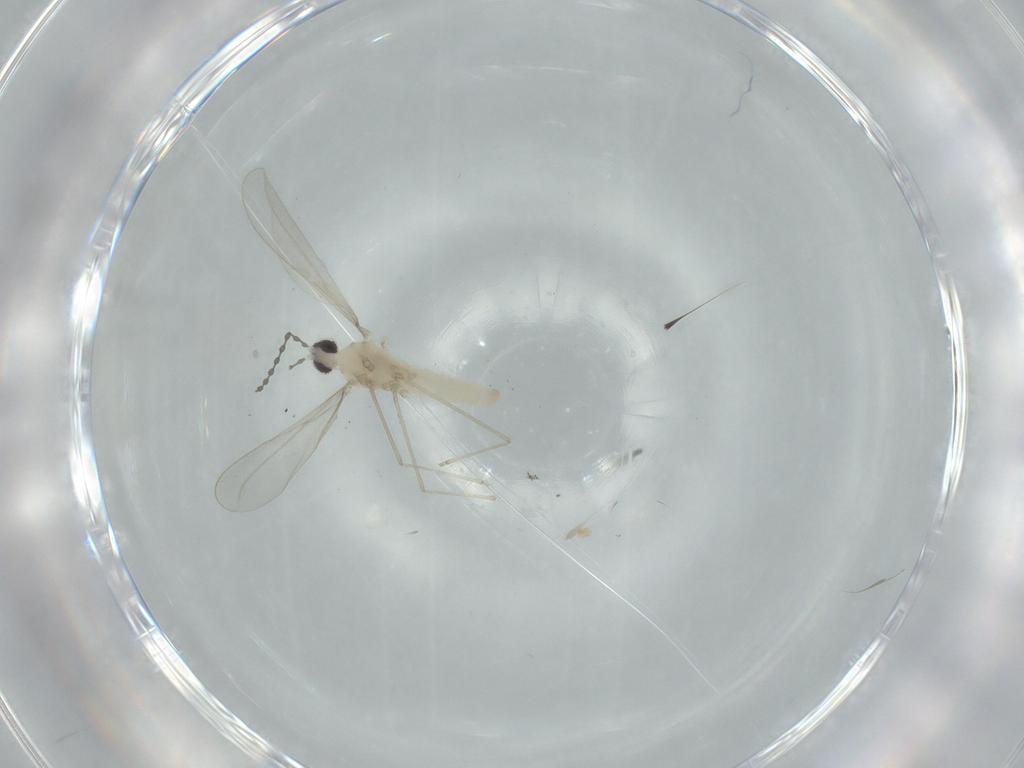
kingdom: Animalia
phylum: Arthropoda
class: Insecta
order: Diptera
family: Cecidomyiidae
